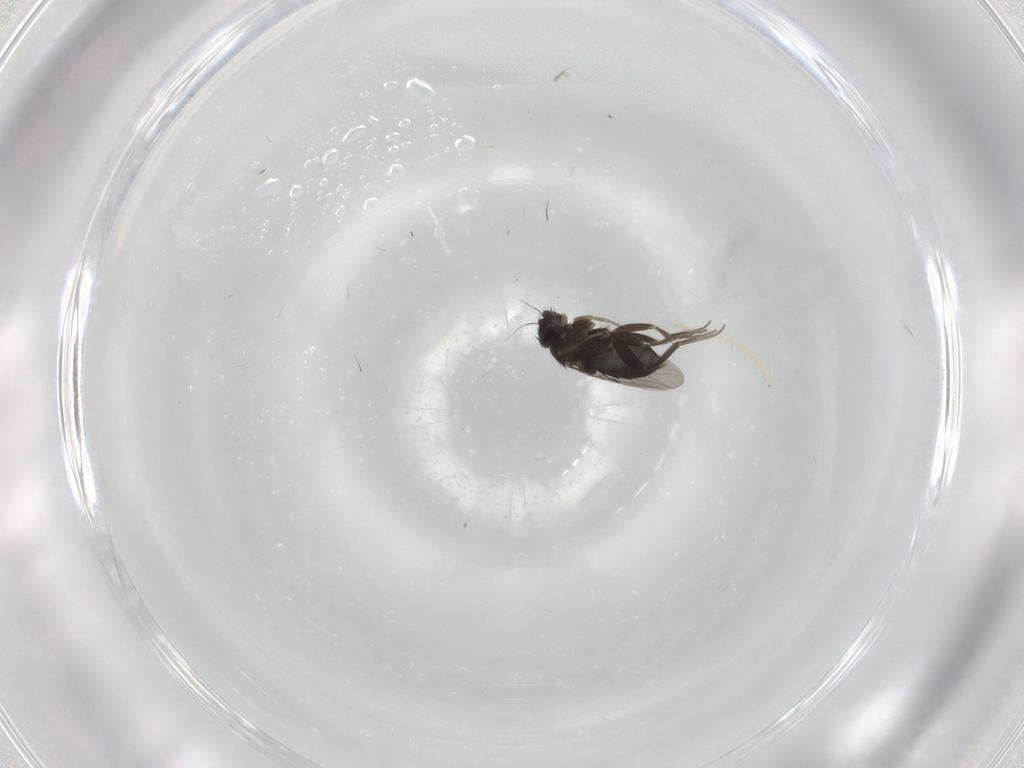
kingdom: Animalia
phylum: Arthropoda
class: Insecta
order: Diptera
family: Phoridae
